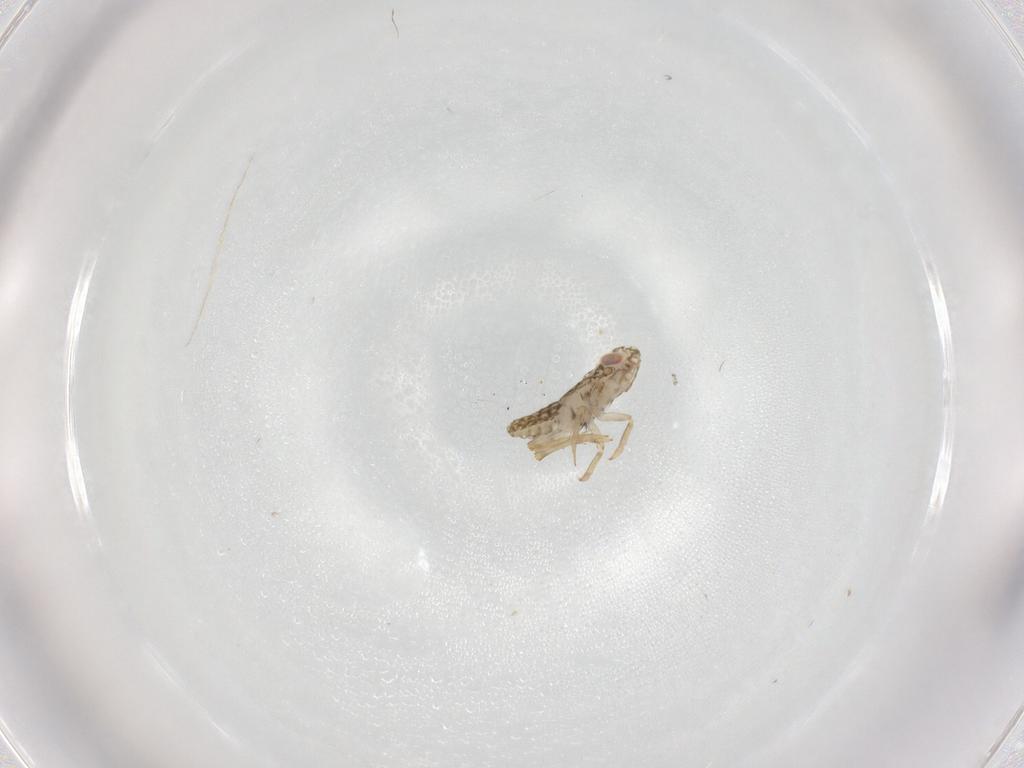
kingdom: Animalia
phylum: Arthropoda
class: Insecta
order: Hemiptera
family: Delphacidae
